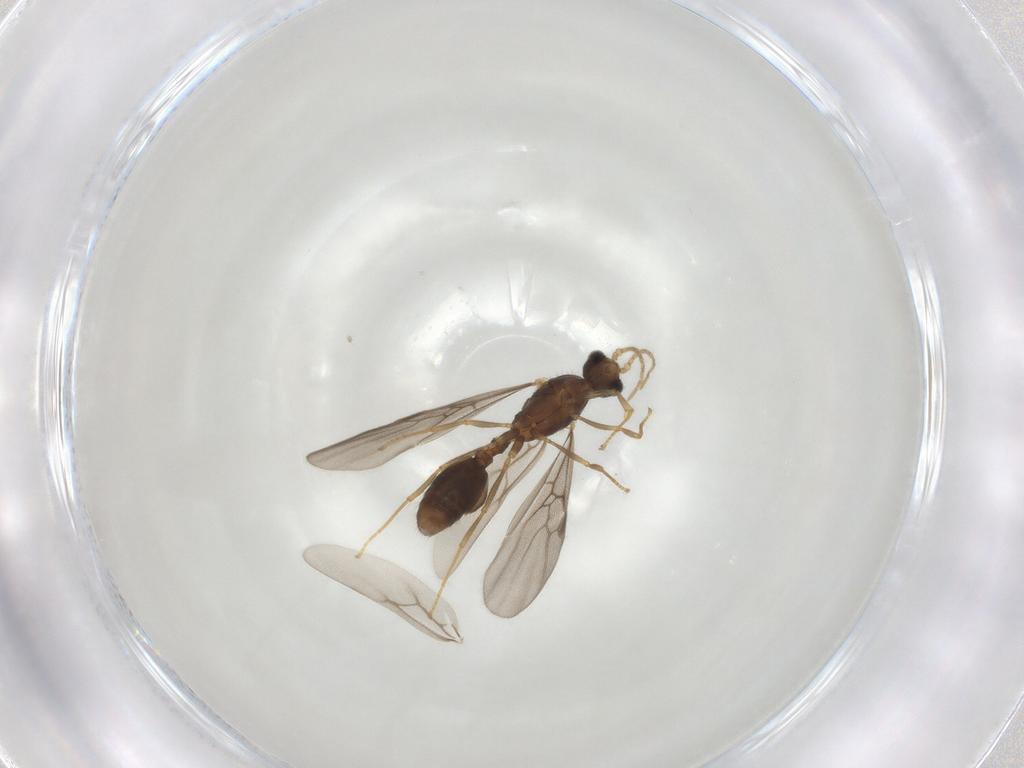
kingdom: Animalia
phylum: Arthropoda
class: Insecta
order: Hymenoptera
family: Formicidae
